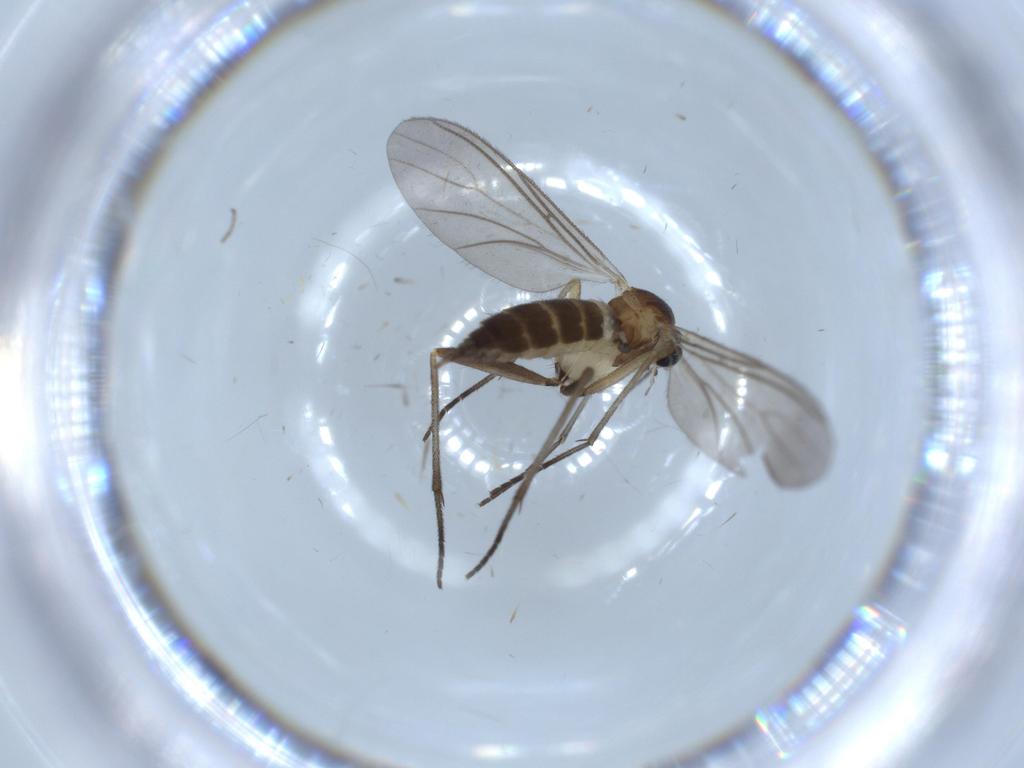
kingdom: Animalia
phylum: Arthropoda
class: Insecta
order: Diptera
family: Sciaridae
